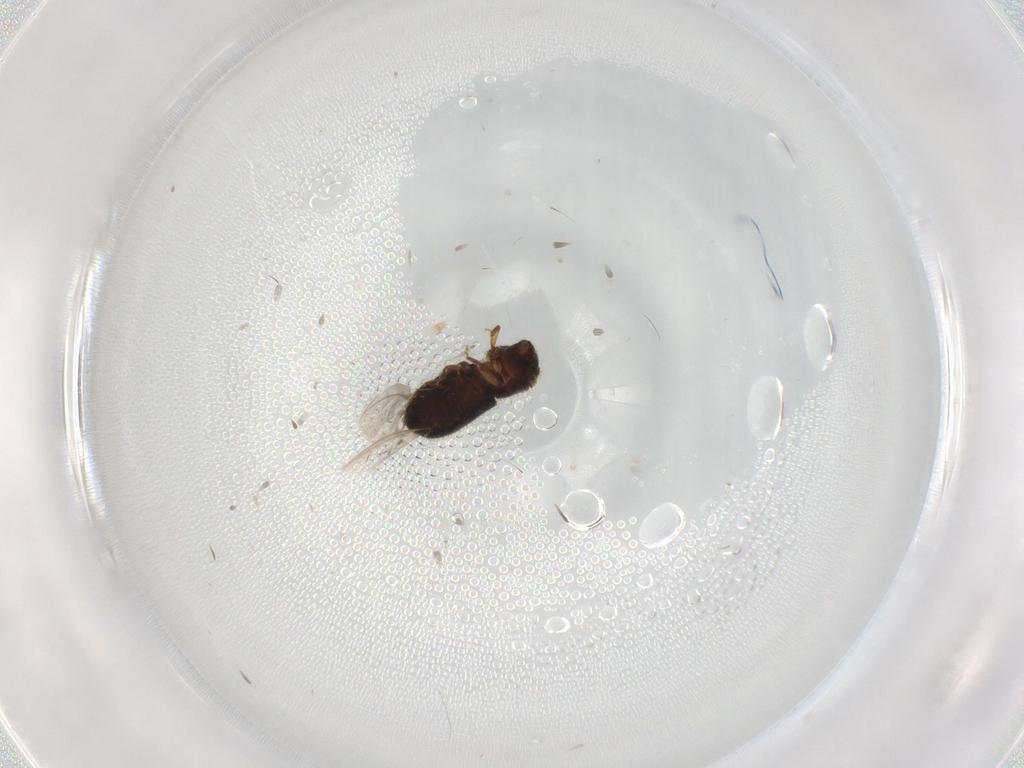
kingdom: Animalia
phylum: Arthropoda
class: Insecta
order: Coleoptera
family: Curculionidae
